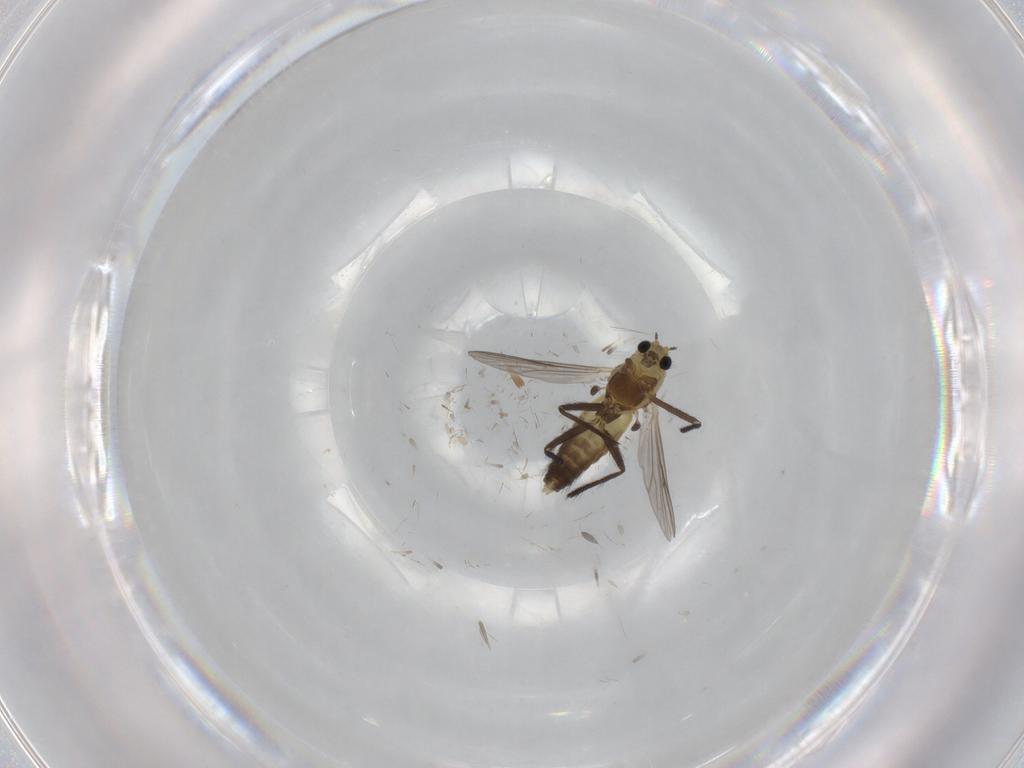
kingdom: Animalia
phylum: Arthropoda
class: Insecta
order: Diptera
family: Chironomidae
